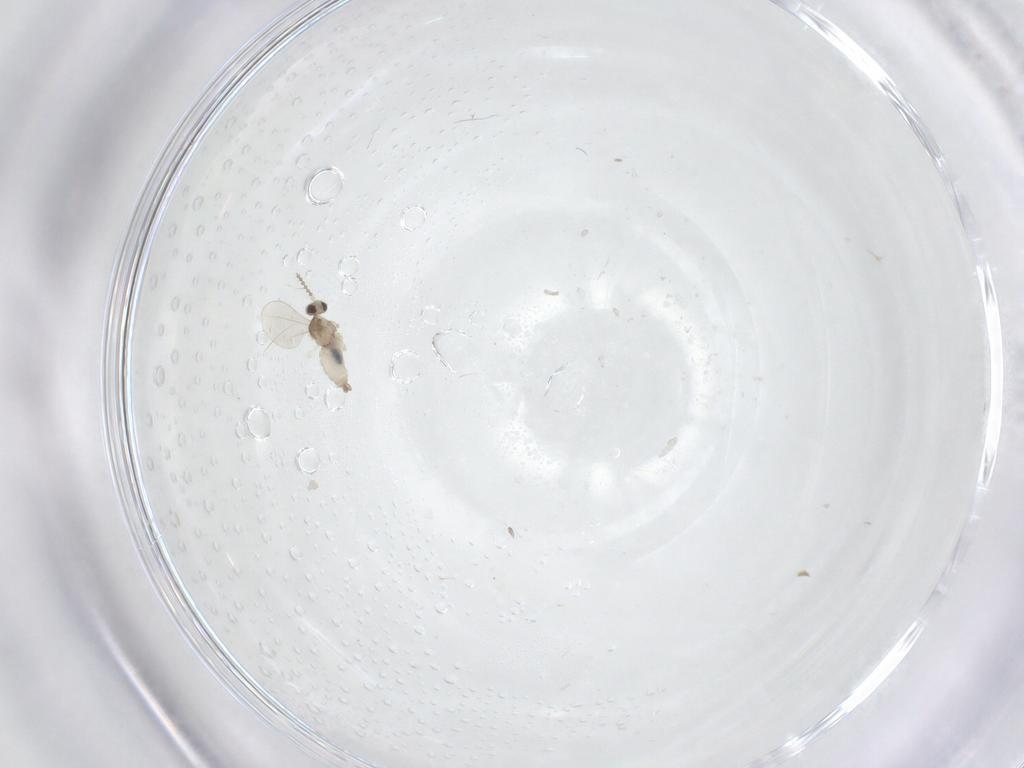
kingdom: Animalia
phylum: Arthropoda
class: Insecta
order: Diptera
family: Cecidomyiidae
